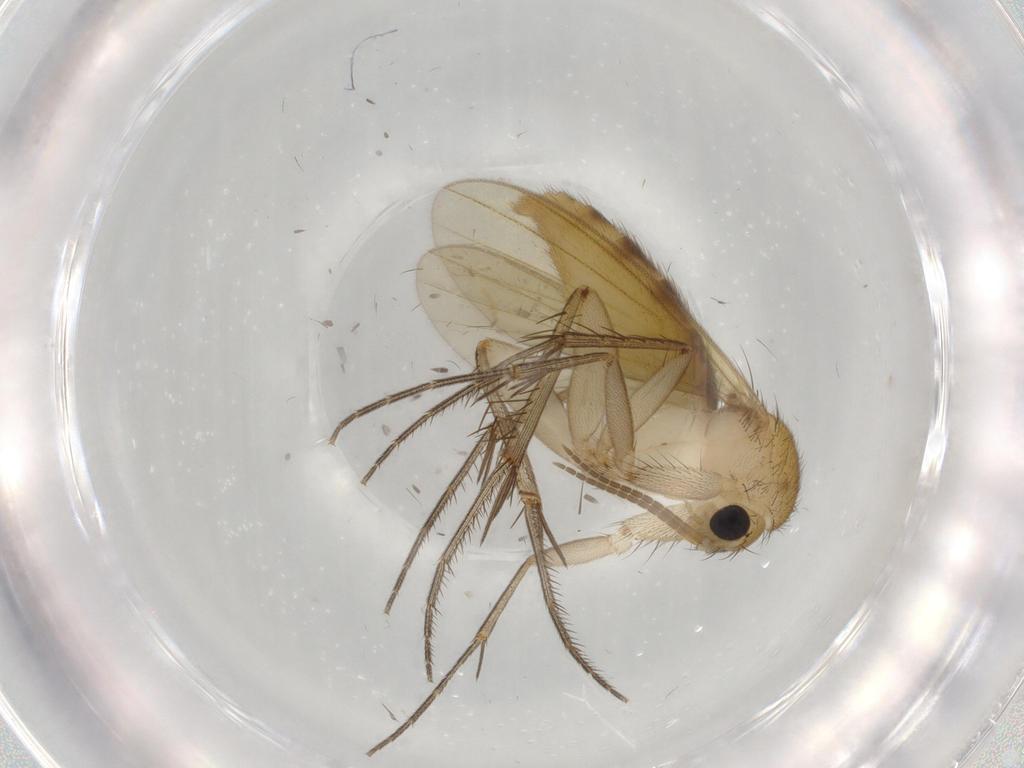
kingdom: Animalia
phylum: Arthropoda
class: Insecta
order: Diptera
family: Mycetophilidae
